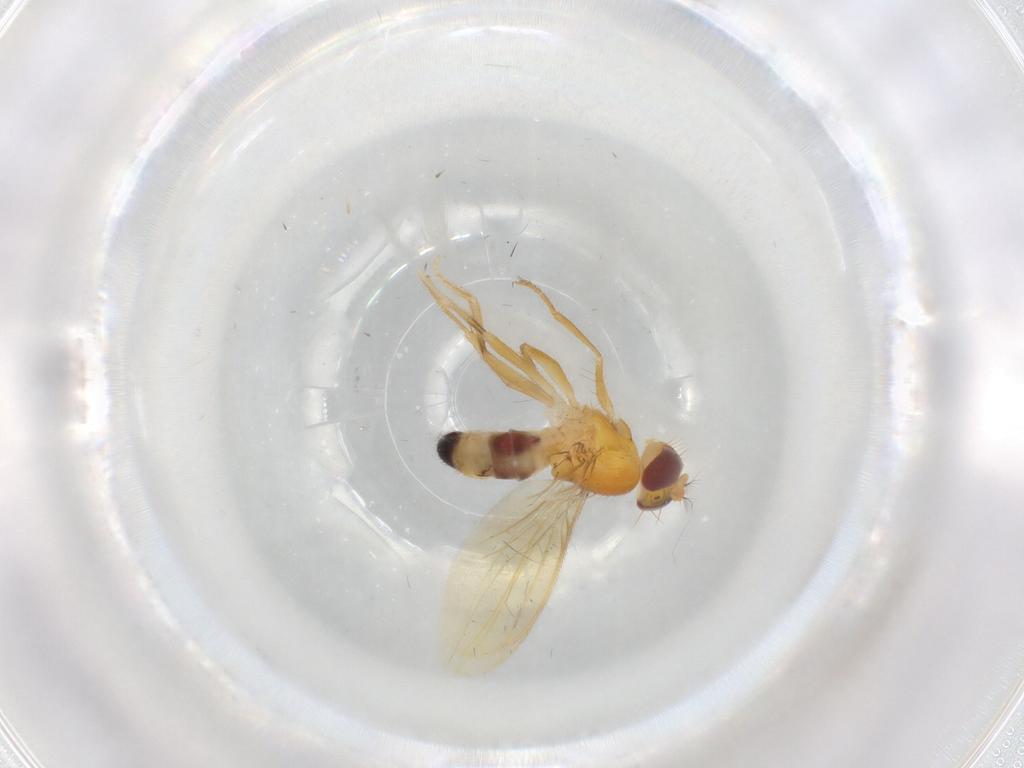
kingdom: Animalia
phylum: Arthropoda
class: Insecta
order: Diptera
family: Periscelididae
